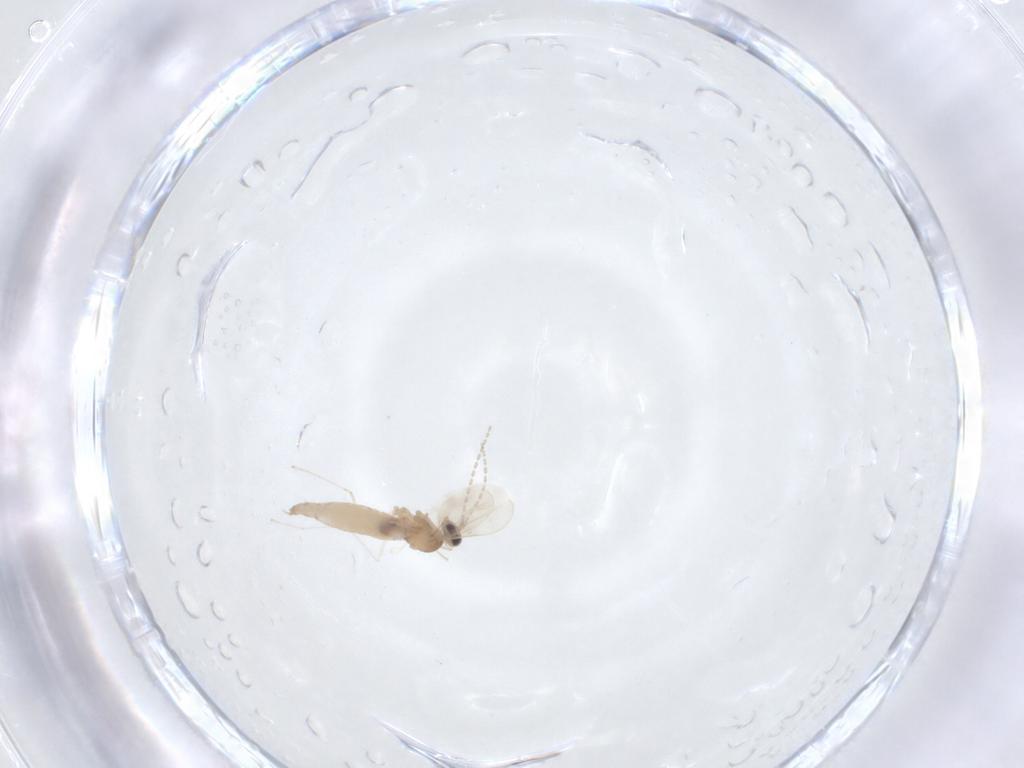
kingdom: Animalia
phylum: Arthropoda
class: Insecta
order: Diptera
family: Cecidomyiidae
